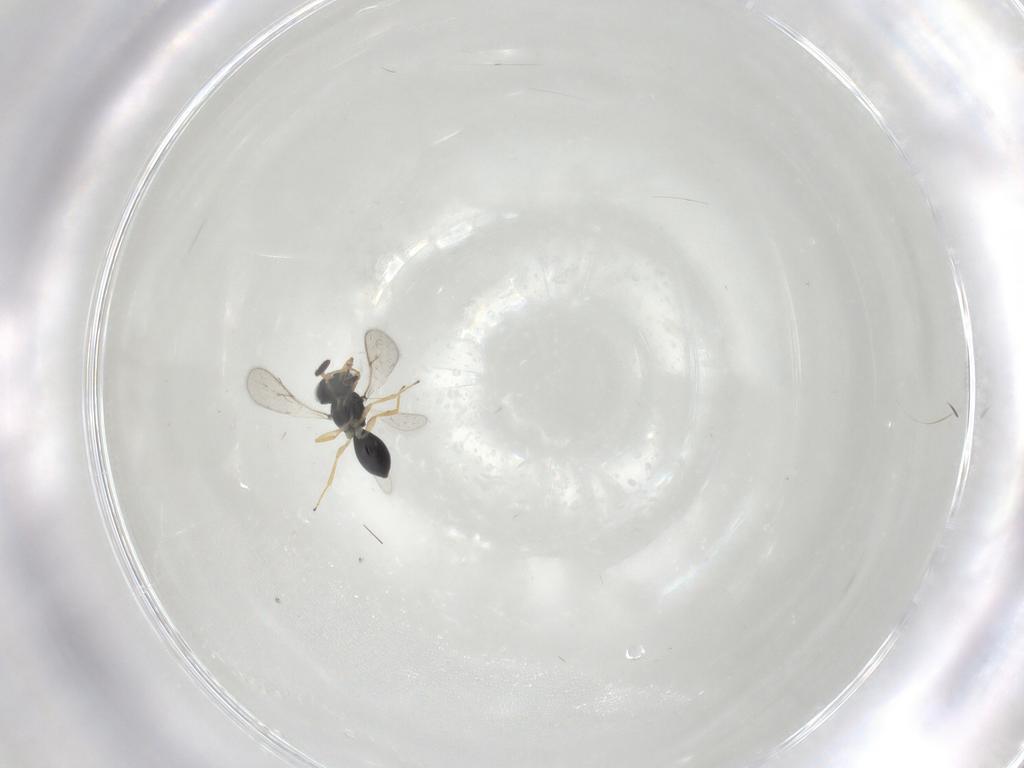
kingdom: Animalia
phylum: Arthropoda
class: Insecta
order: Hymenoptera
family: Scelionidae
